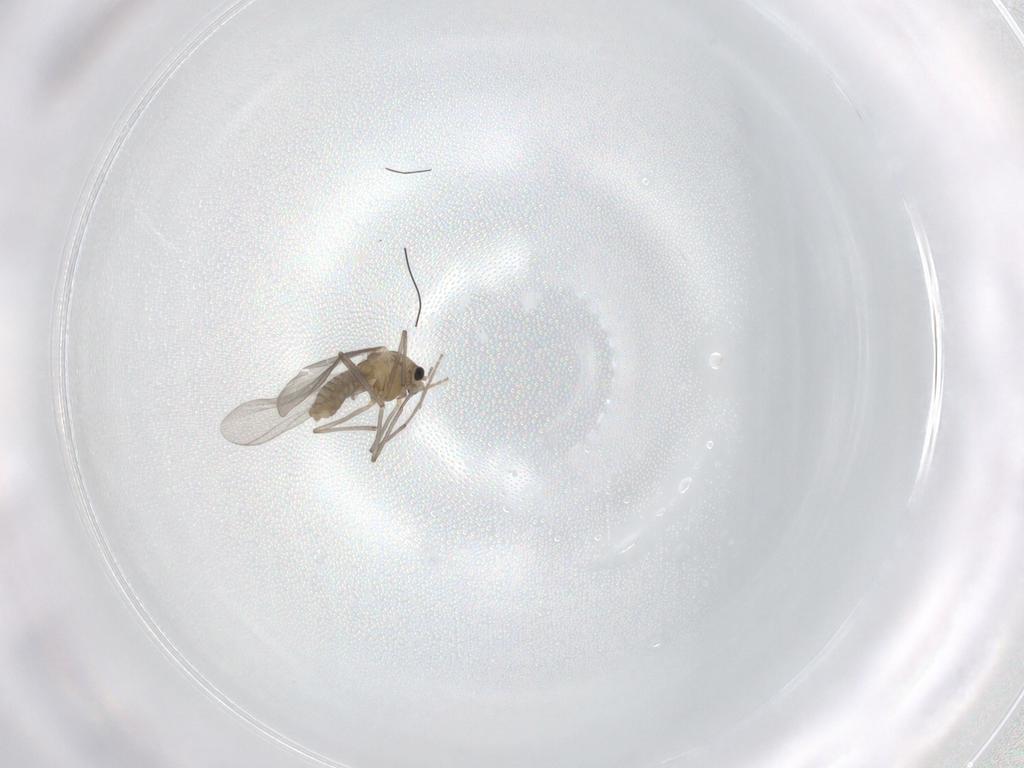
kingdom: Animalia
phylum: Arthropoda
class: Insecta
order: Diptera
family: Chironomidae
